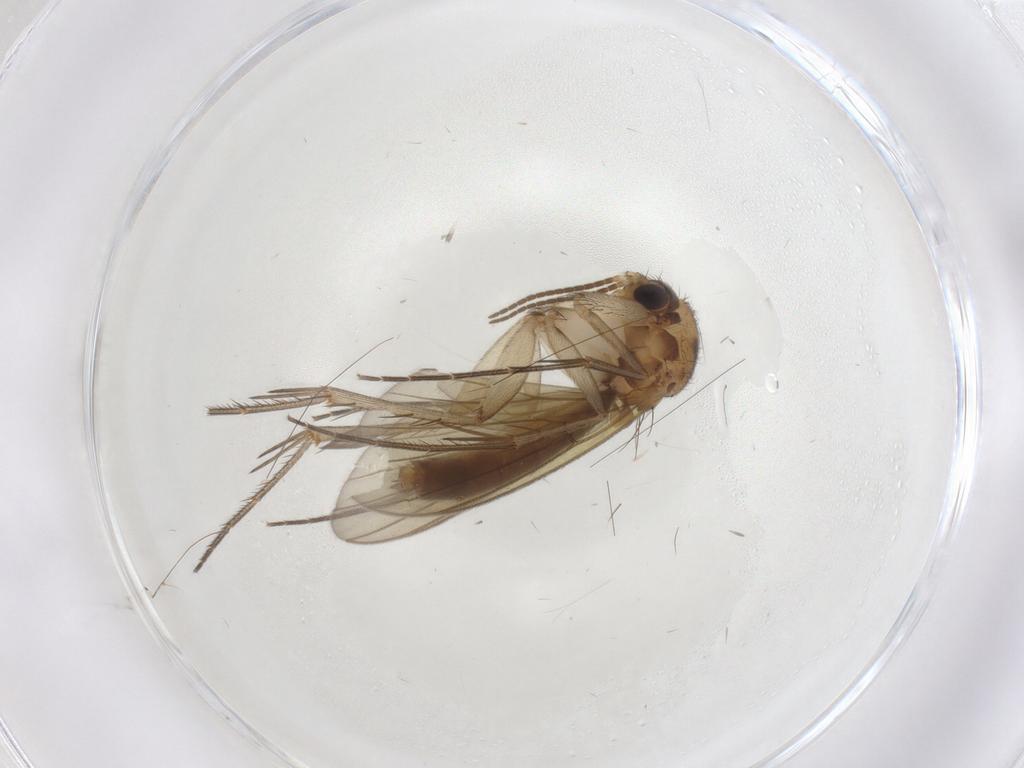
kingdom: Animalia
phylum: Arthropoda
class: Insecta
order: Diptera
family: Mycetophilidae
